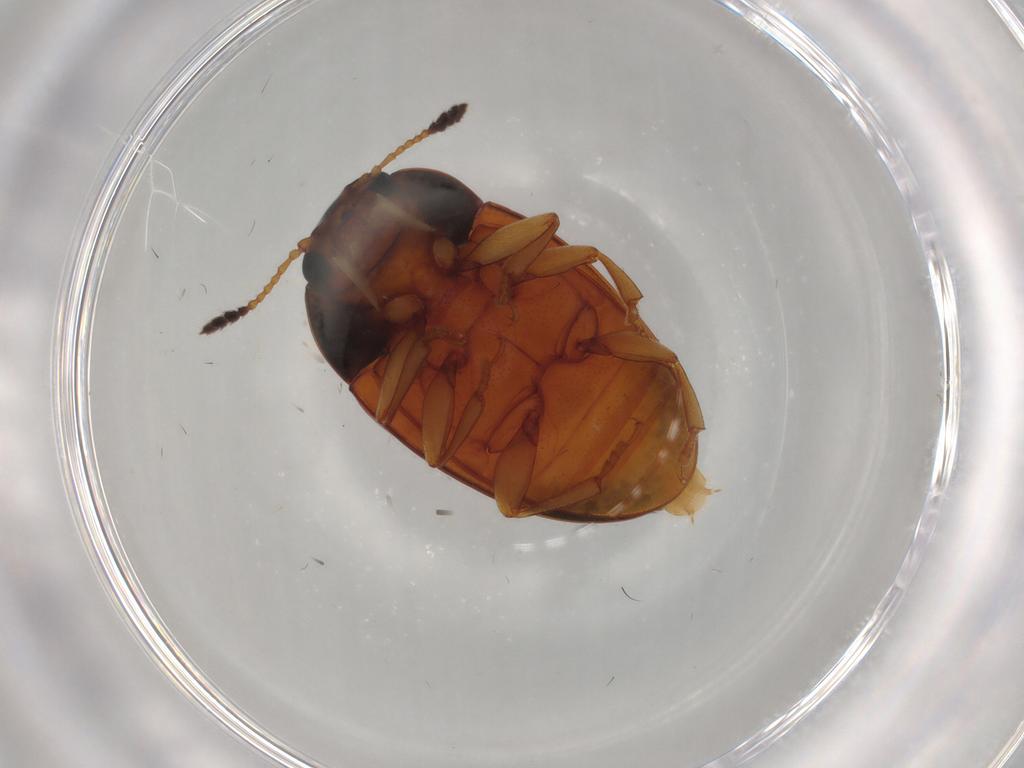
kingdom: Animalia
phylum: Arthropoda
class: Insecta
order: Coleoptera
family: Erotylidae
